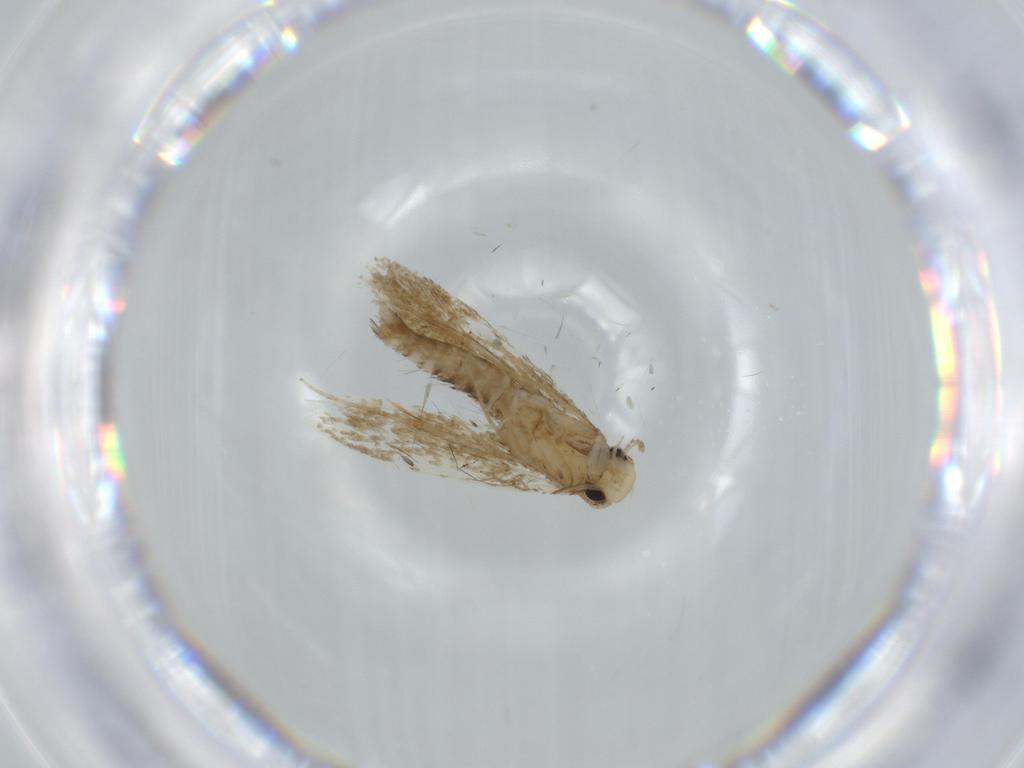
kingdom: Animalia
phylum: Arthropoda
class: Insecta
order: Lepidoptera
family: Tineidae
